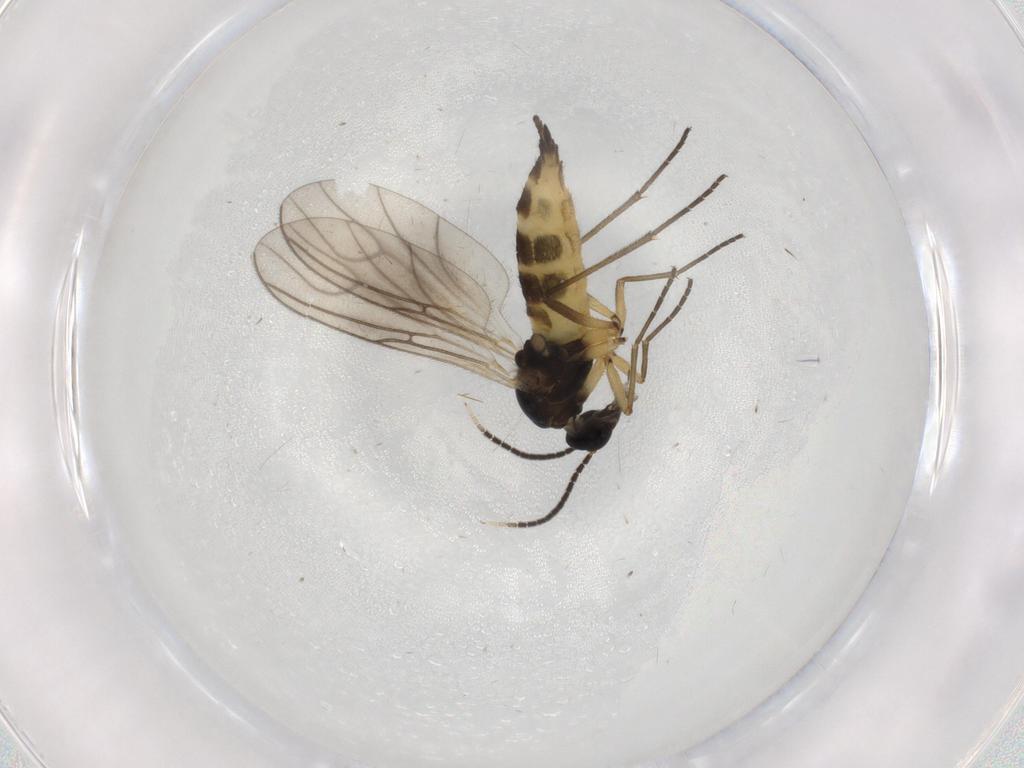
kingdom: Animalia
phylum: Arthropoda
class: Insecta
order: Diptera
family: Sciaridae
